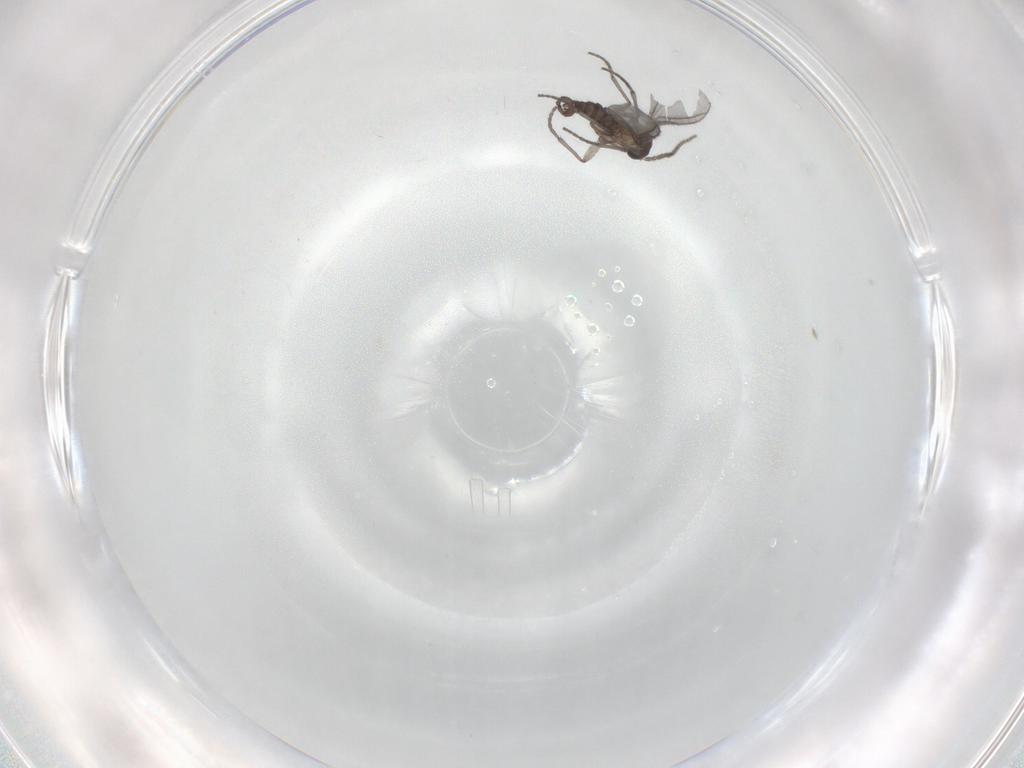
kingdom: Animalia
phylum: Arthropoda
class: Insecta
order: Diptera
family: Sciaridae
